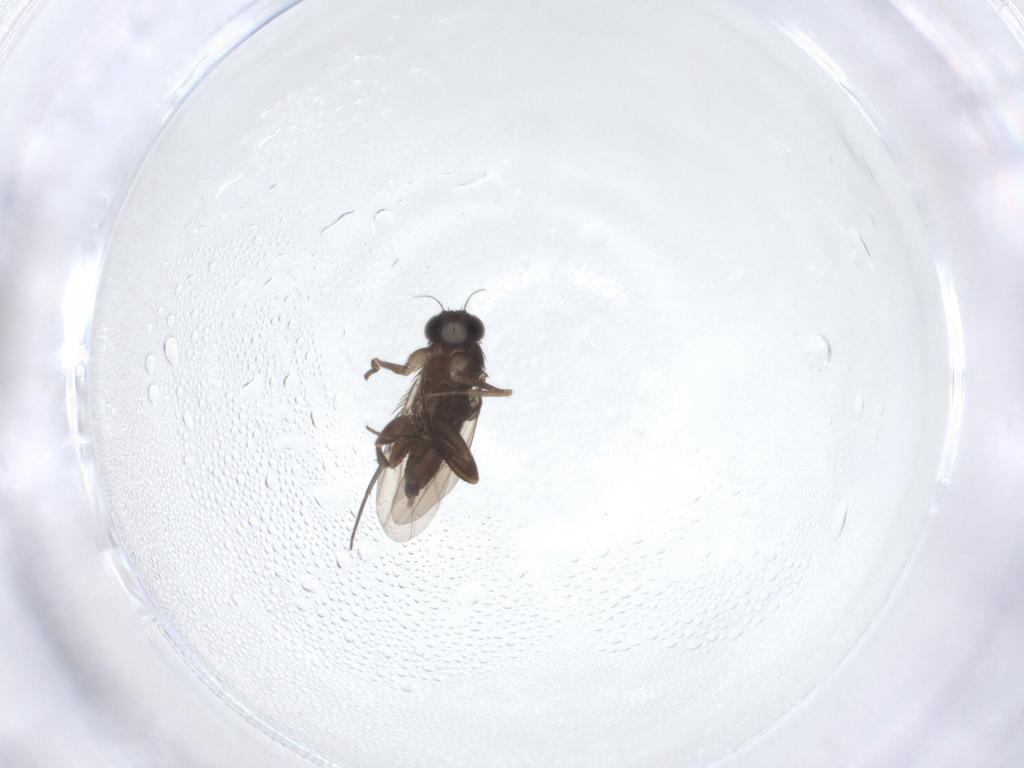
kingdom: Animalia
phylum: Arthropoda
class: Insecta
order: Diptera
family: Phoridae
